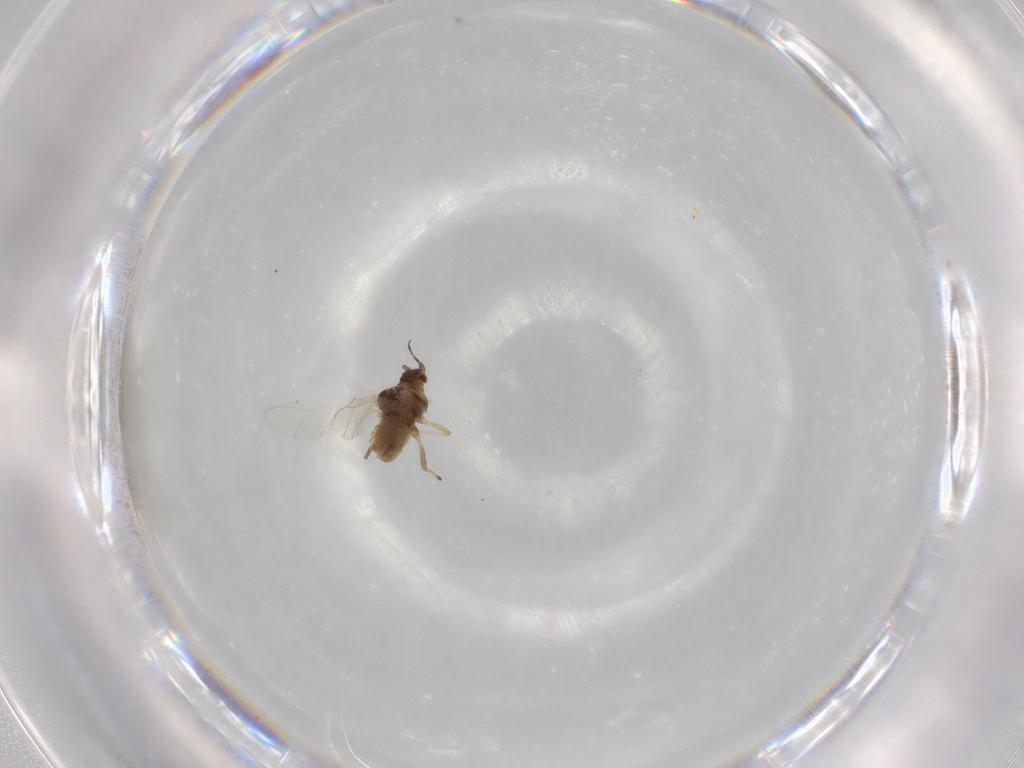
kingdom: Animalia
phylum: Arthropoda
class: Insecta
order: Hemiptera
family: Aphididae
